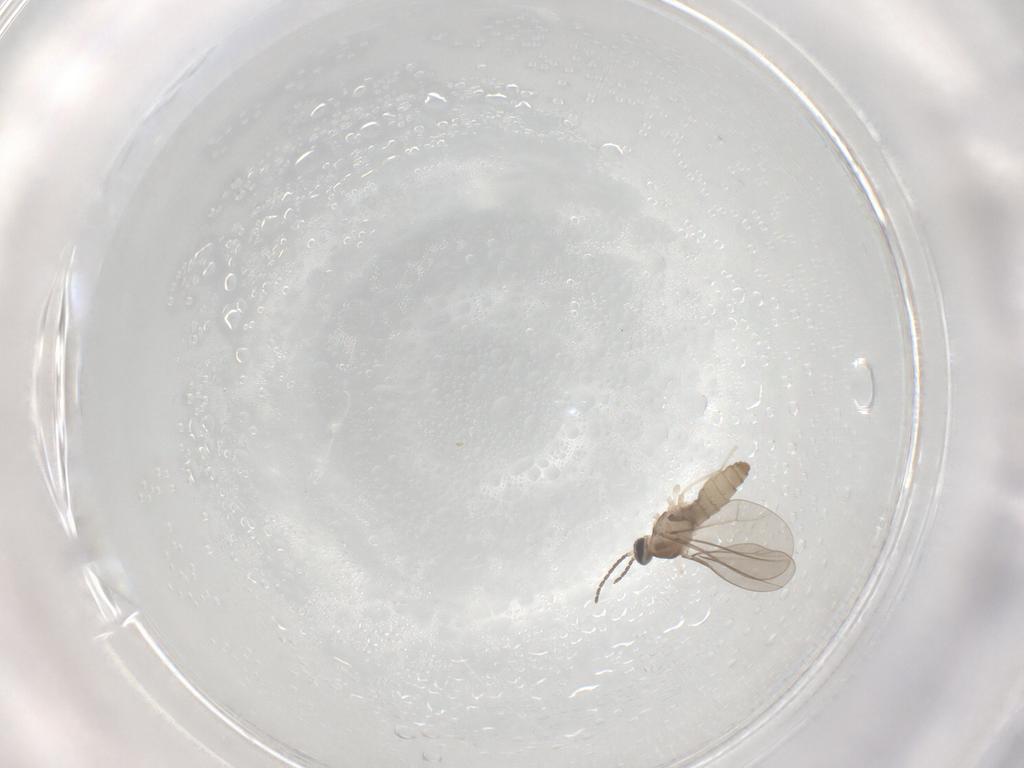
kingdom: Animalia
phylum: Arthropoda
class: Insecta
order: Diptera
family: Cecidomyiidae
